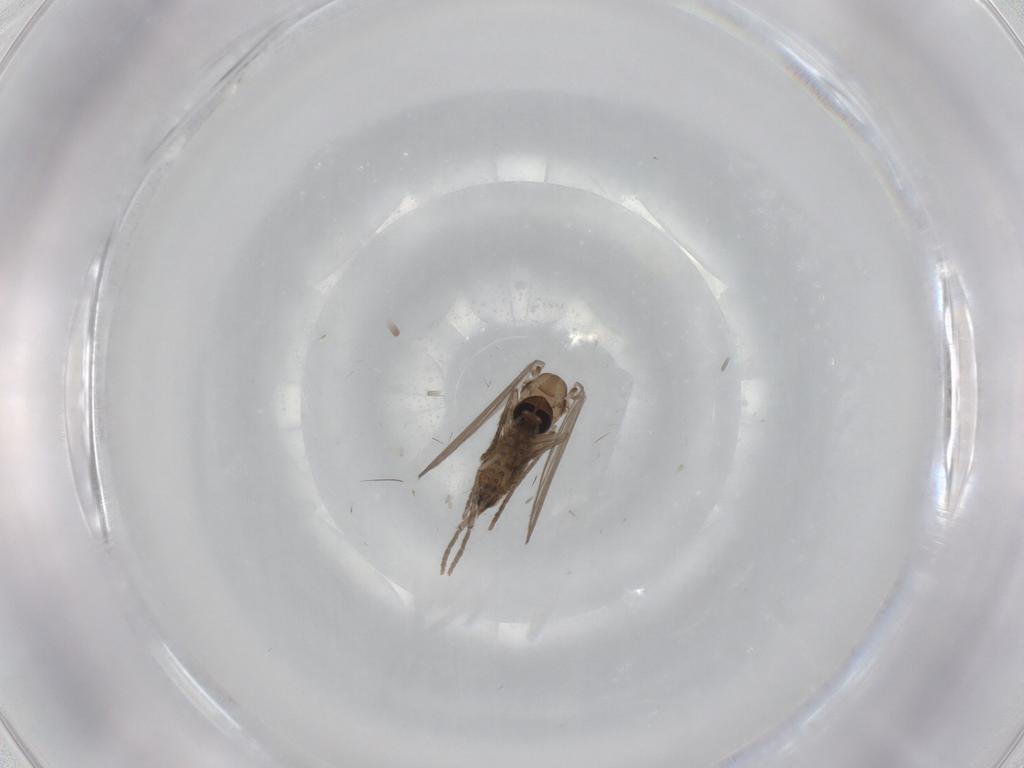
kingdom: Animalia
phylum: Arthropoda
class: Insecta
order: Diptera
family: Psychodidae
